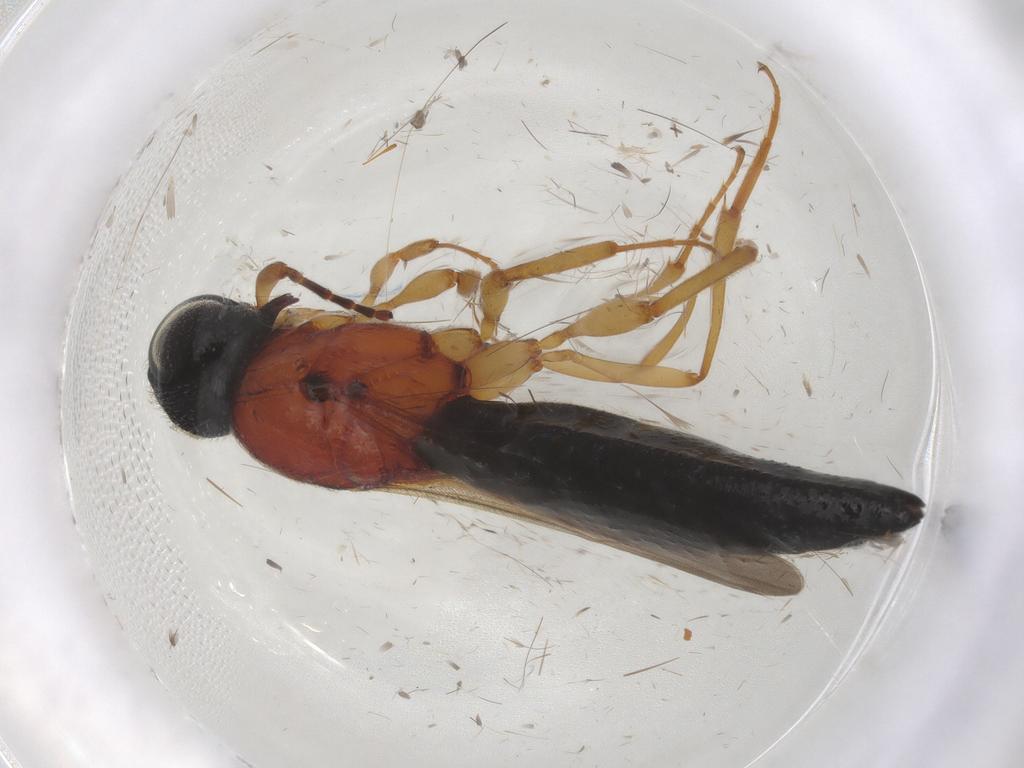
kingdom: Animalia
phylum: Arthropoda
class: Insecta
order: Hymenoptera
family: Scelionidae
